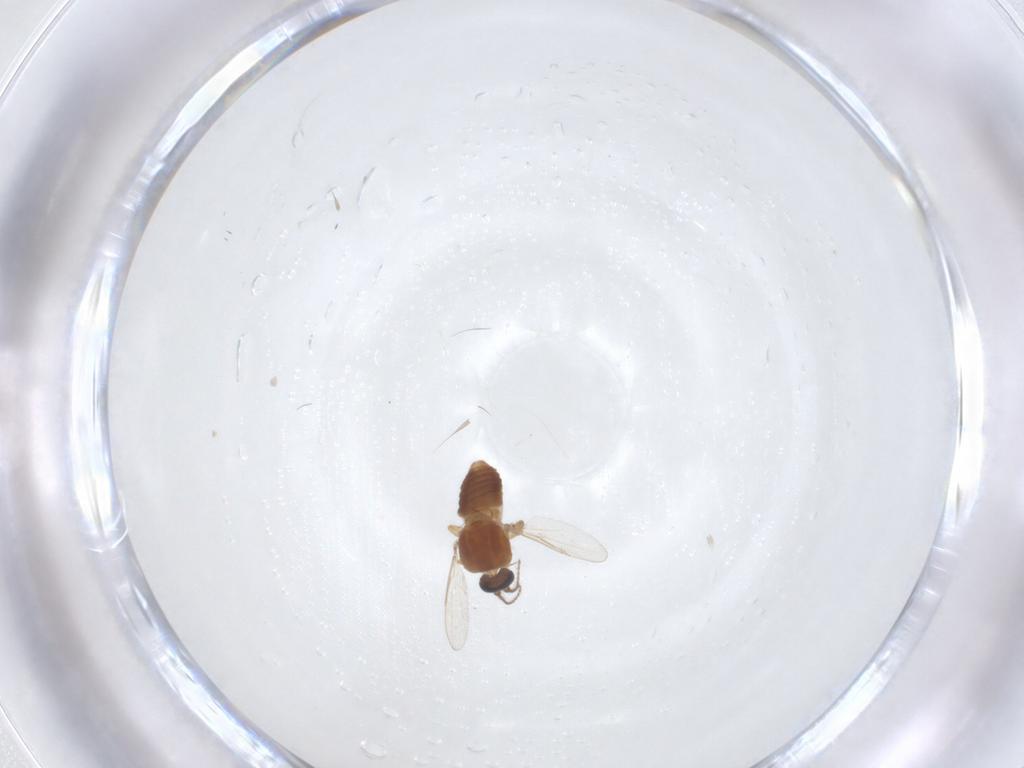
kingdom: Animalia
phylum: Arthropoda
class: Insecta
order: Diptera
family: Ceratopogonidae
